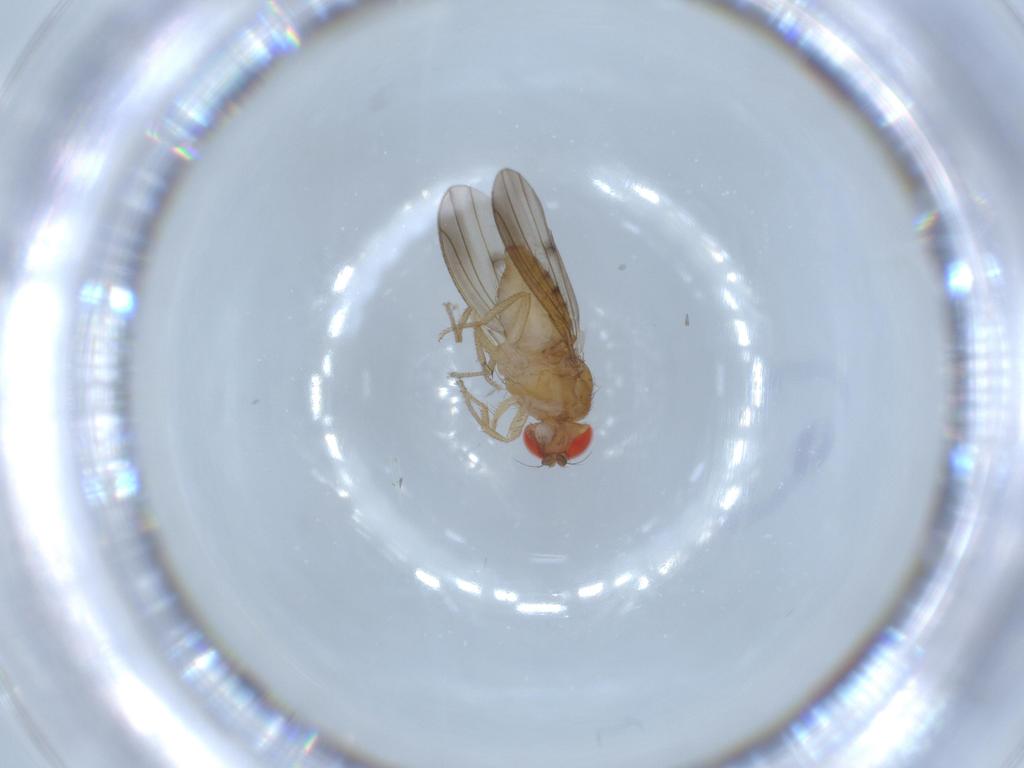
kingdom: Animalia
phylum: Arthropoda
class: Insecta
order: Diptera
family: Drosophilidae
